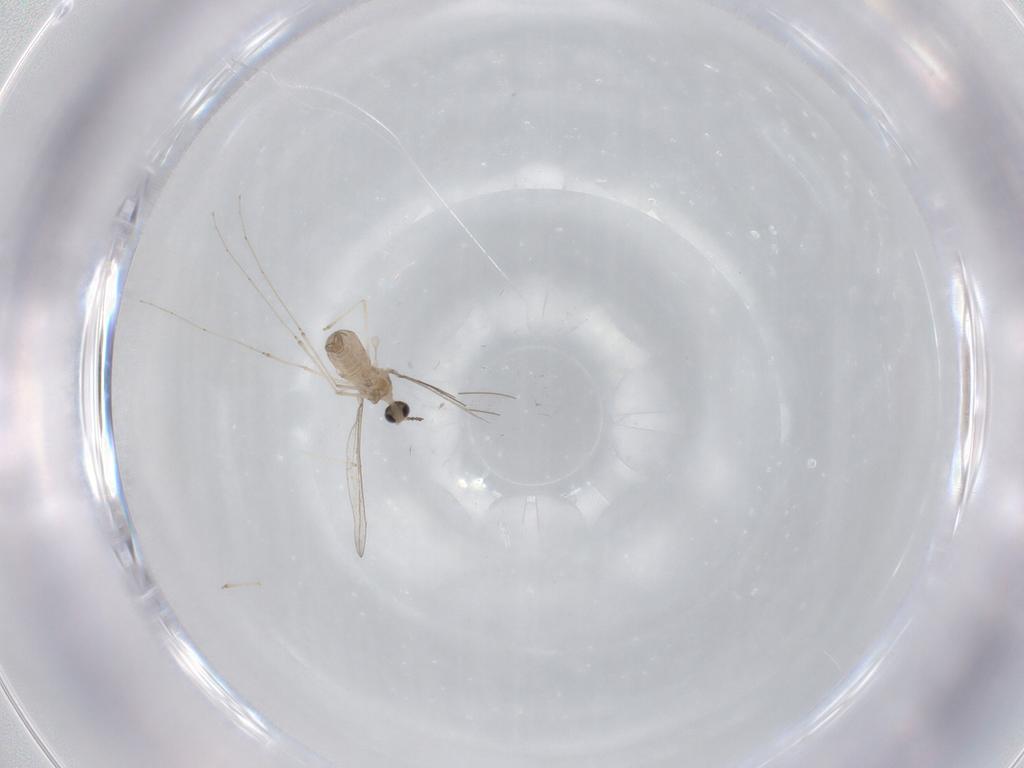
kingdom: Animalia
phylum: Arthropoda
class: Insecta
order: Diptera
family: Cecidomyiidae
